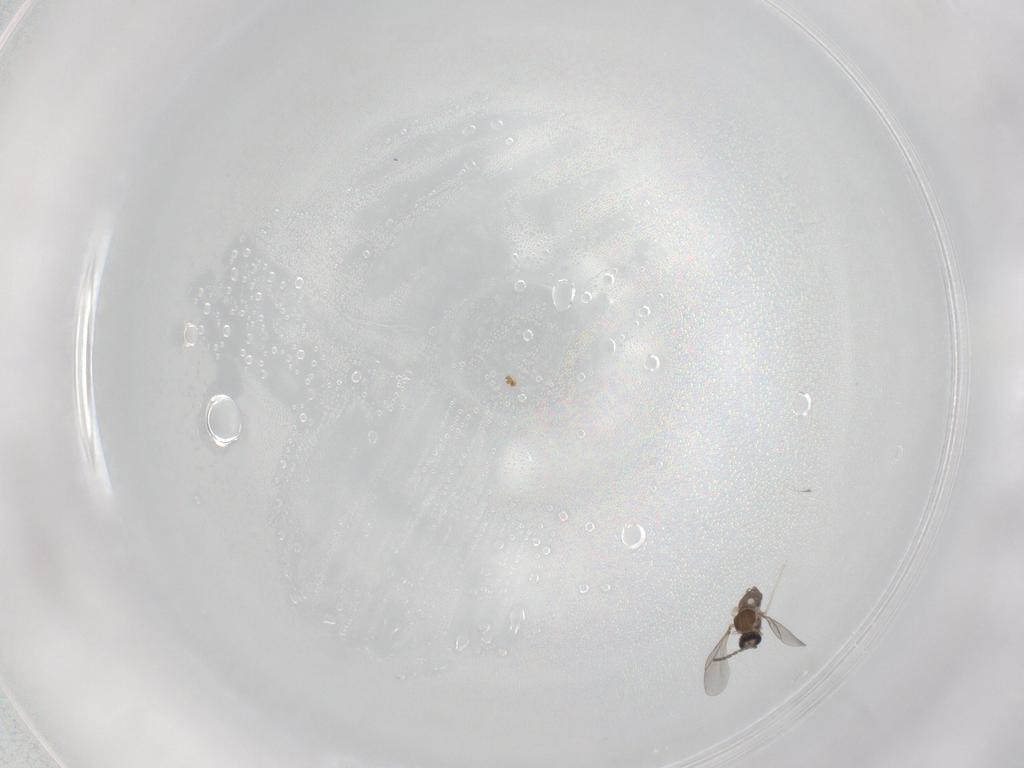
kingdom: Animalia
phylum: Arthropoda
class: Insecta
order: Diptera
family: Cecidomyiidae
